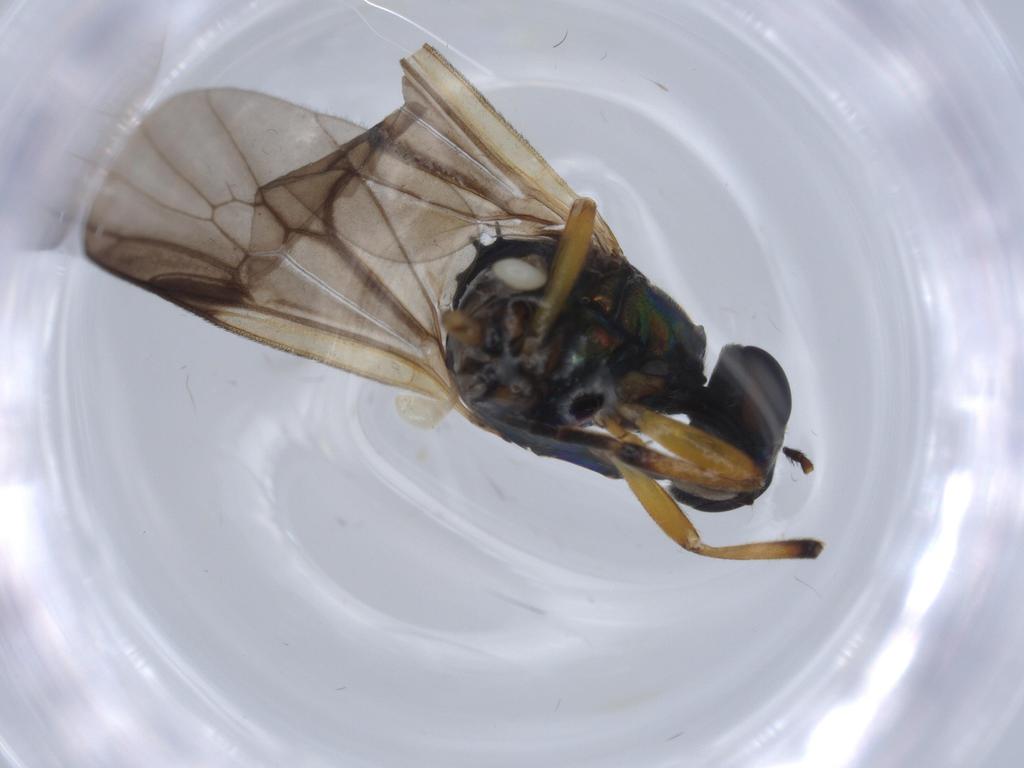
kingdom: Animalia
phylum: Arthropoda
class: Insecta
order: Diptera
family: Stratiomyidae
